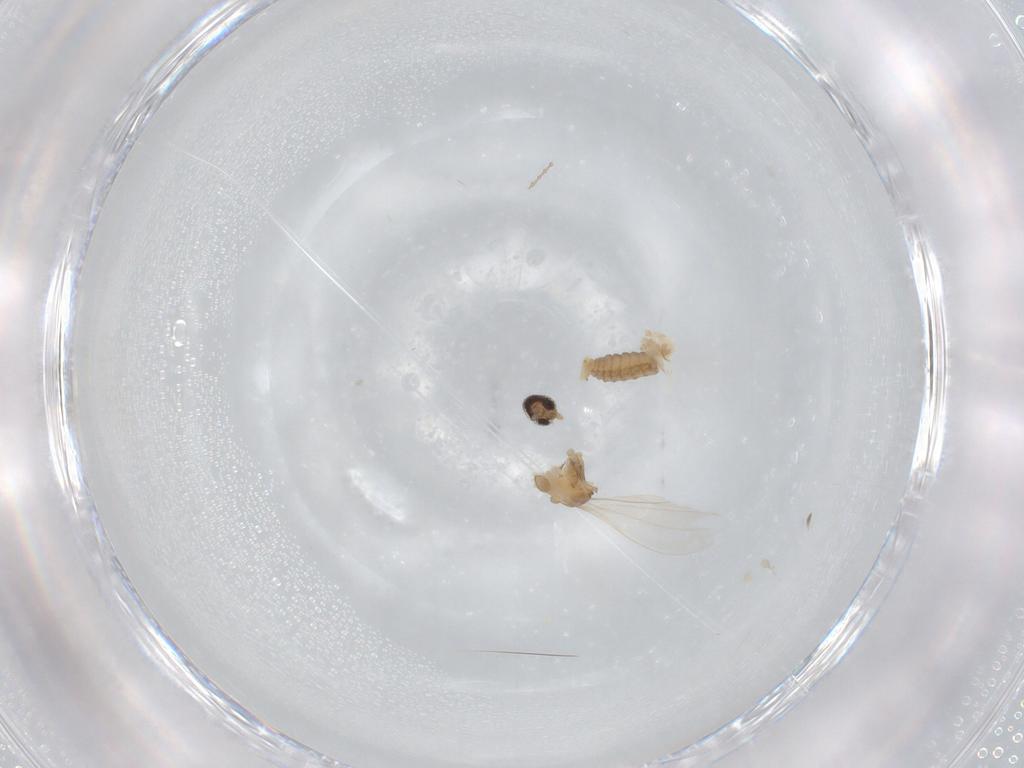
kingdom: Animalia
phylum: Arthropoda
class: Insecta
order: Diptera
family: Cecidomyiidae
